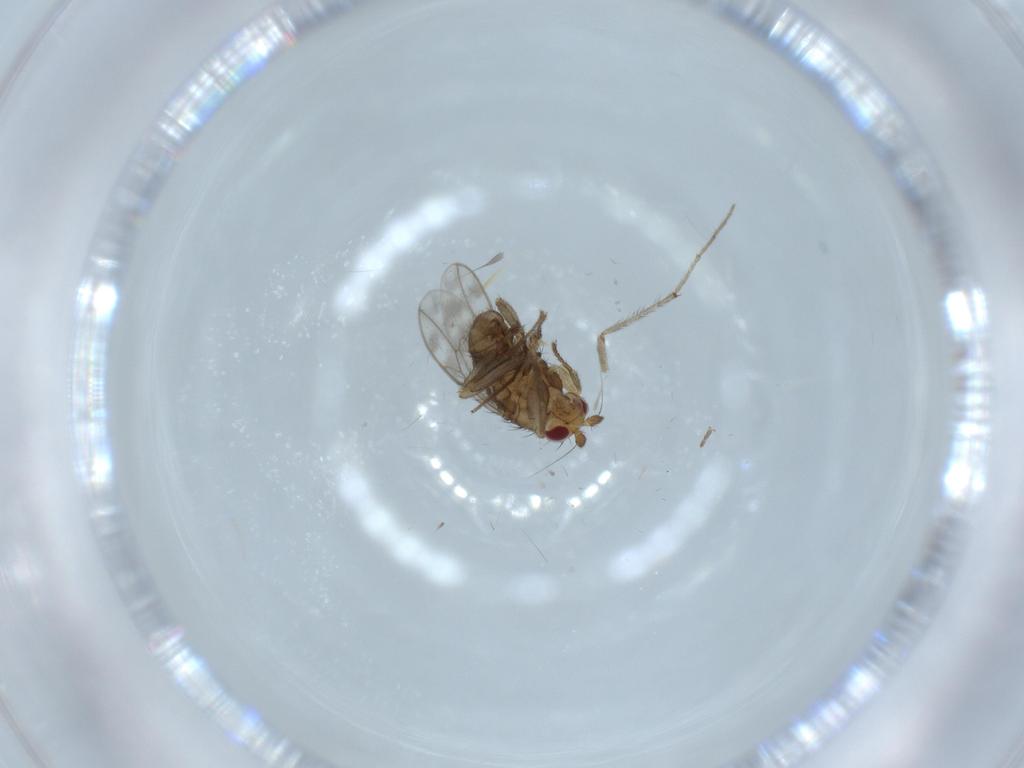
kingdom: Animalia
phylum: Arthropoda
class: Insecta
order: Diptera
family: Sphaeroceridae
